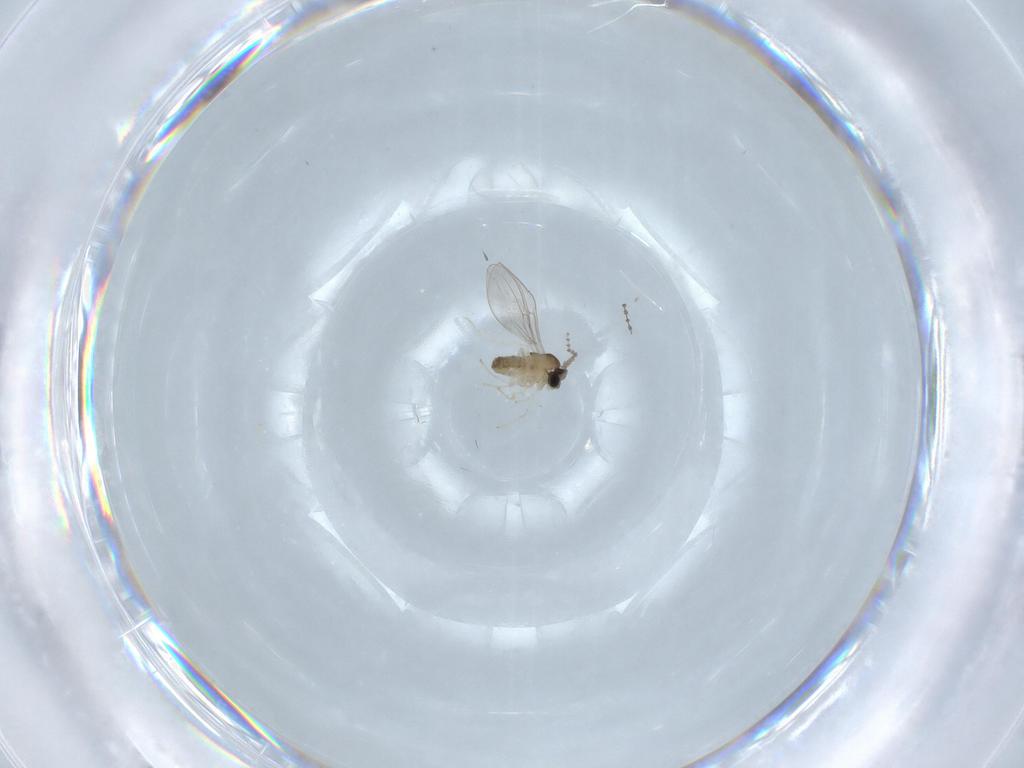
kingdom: Animalia
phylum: Arthropoda
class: Insecta
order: Diptera
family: Cecidomyiidae
